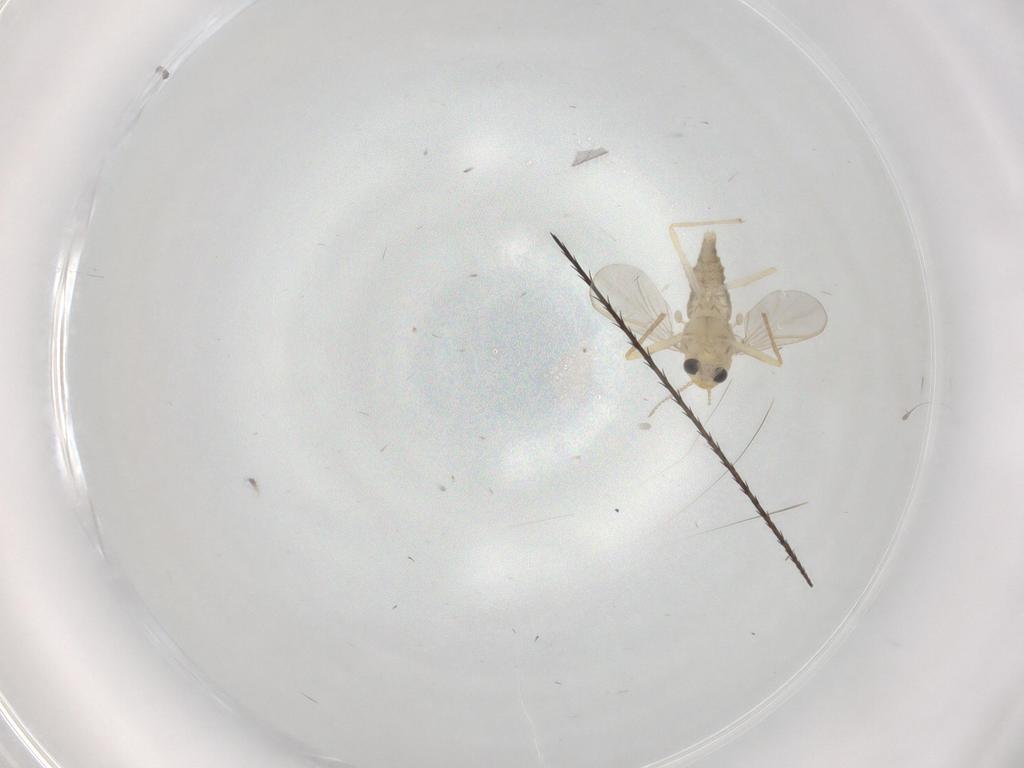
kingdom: Animalia
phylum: Arthropoda
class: Insecta
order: Diptera
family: Chironomidae
